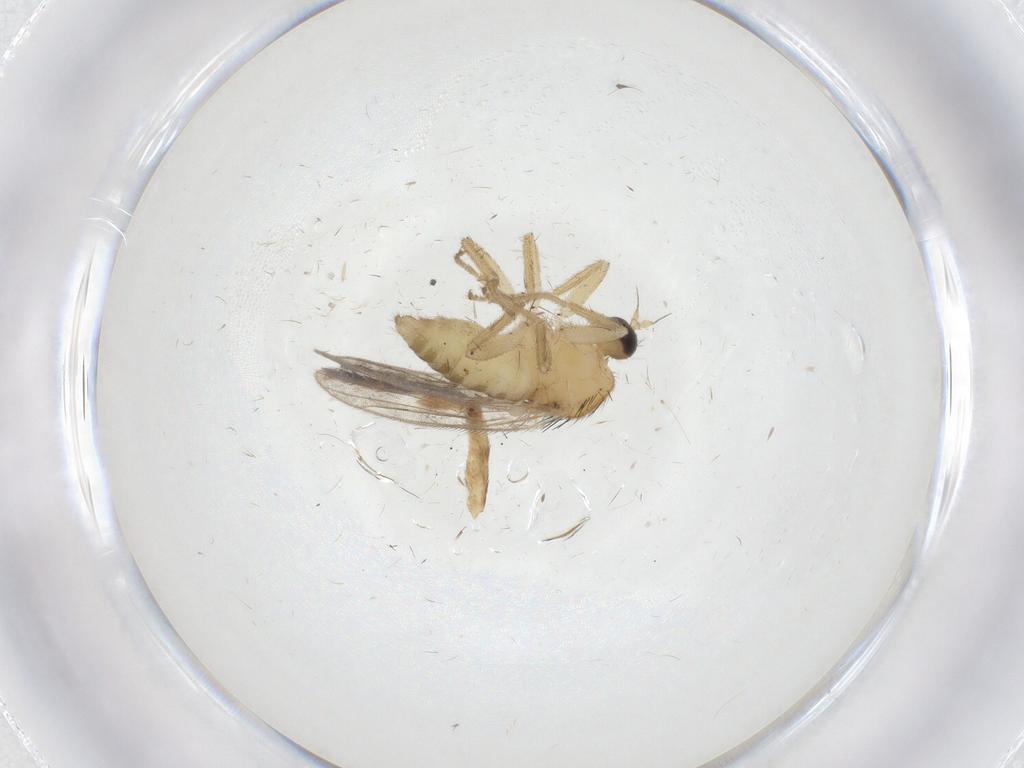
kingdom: Animalia
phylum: Arthropoda
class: Insecta
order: Diptera
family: Hybotidae
